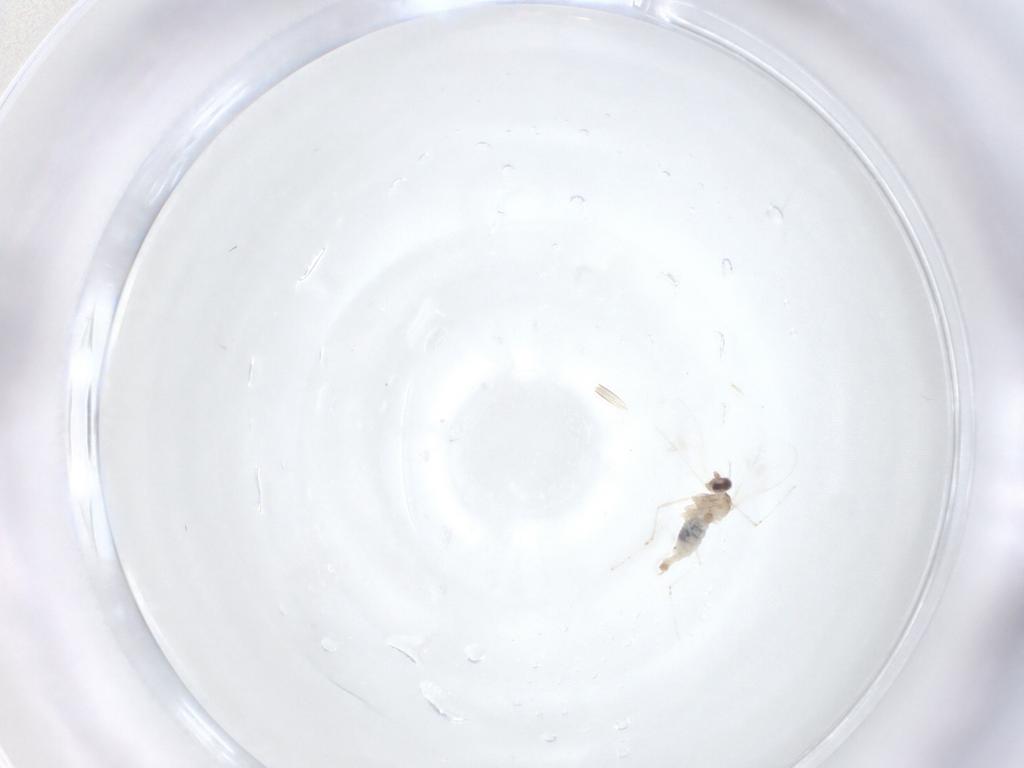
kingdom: Animalia
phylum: Arthropoda
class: Insecta
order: Diptera
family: Cecidomyiidae
